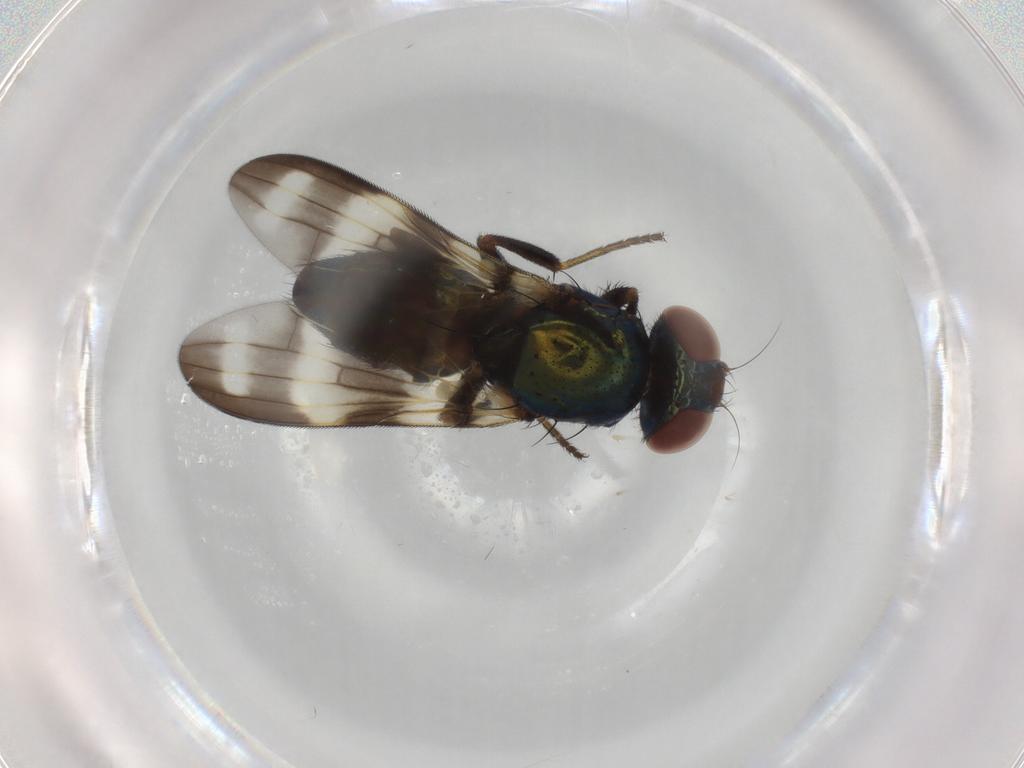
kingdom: Animalia
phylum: Arthropoda
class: Insecta
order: Diptera
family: Ulidiidae
